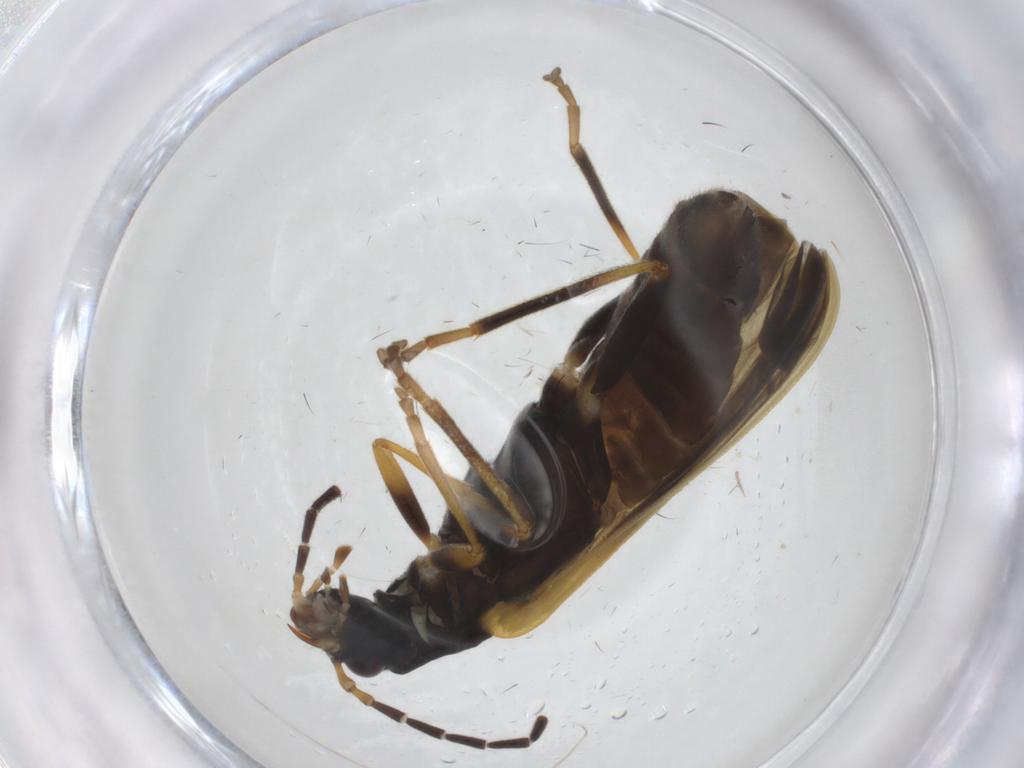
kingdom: Animalia
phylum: Arthropoda
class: Insecta
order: Coleoptera
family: Cantharidae
